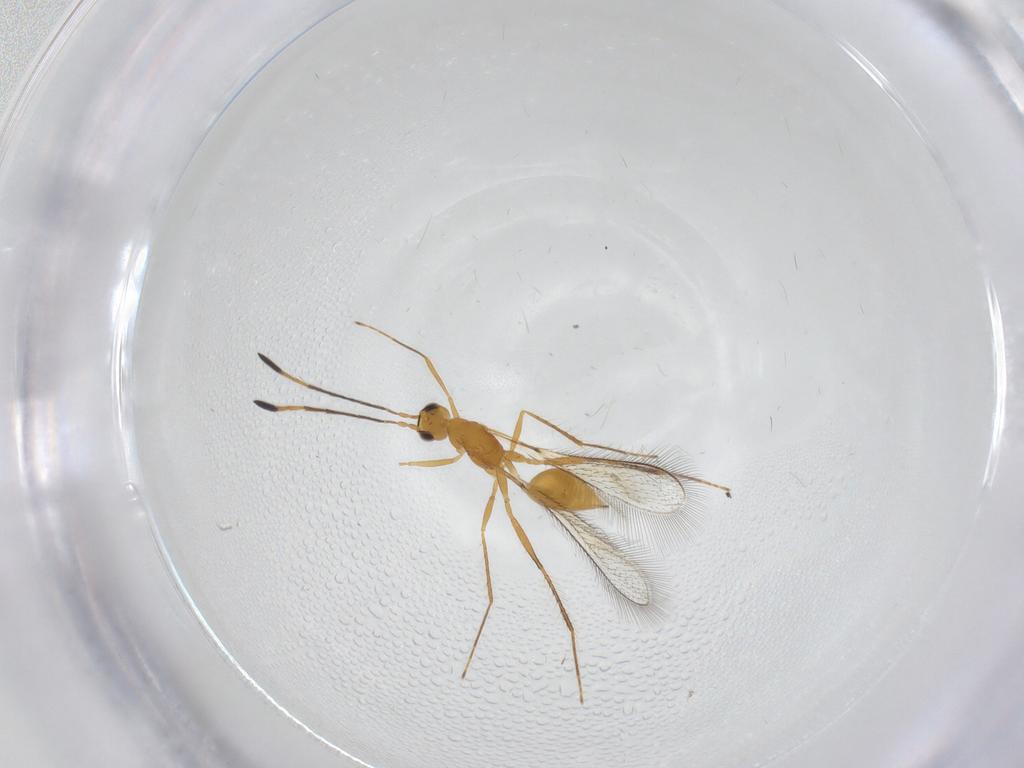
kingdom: Animalia
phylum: Arthropoda
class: Insecta
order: Hymenoptera
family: Mymaridae
